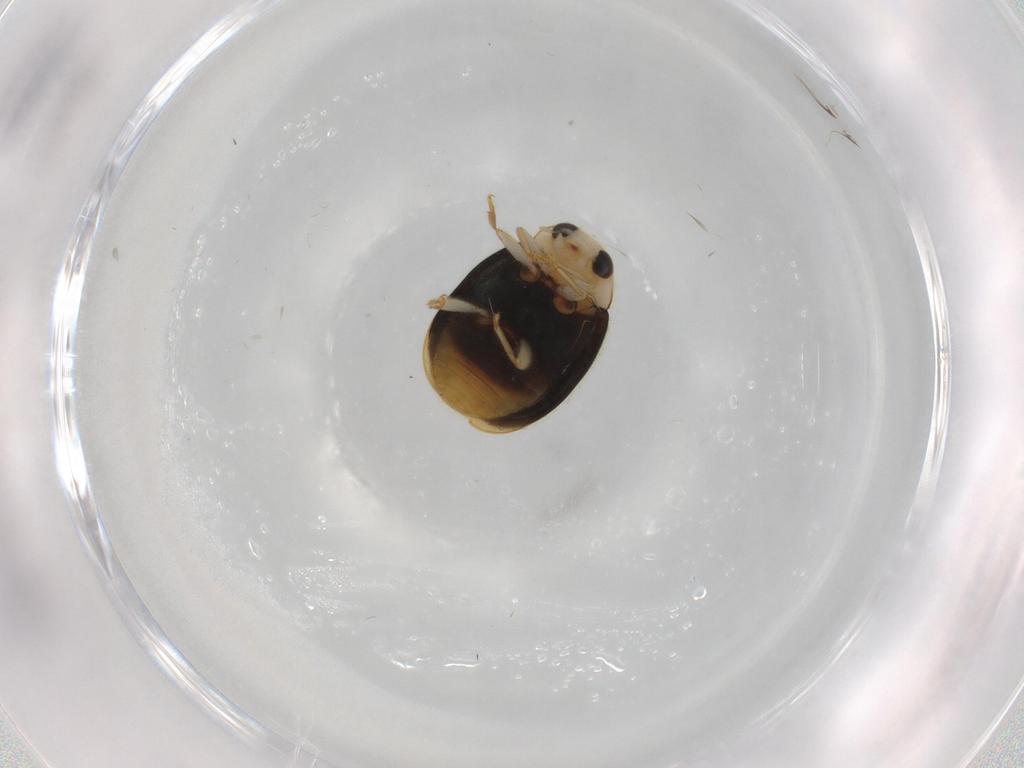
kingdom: Animalia
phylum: Arthropoda
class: Insecta
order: Coleoptera
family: Coccinellidae
